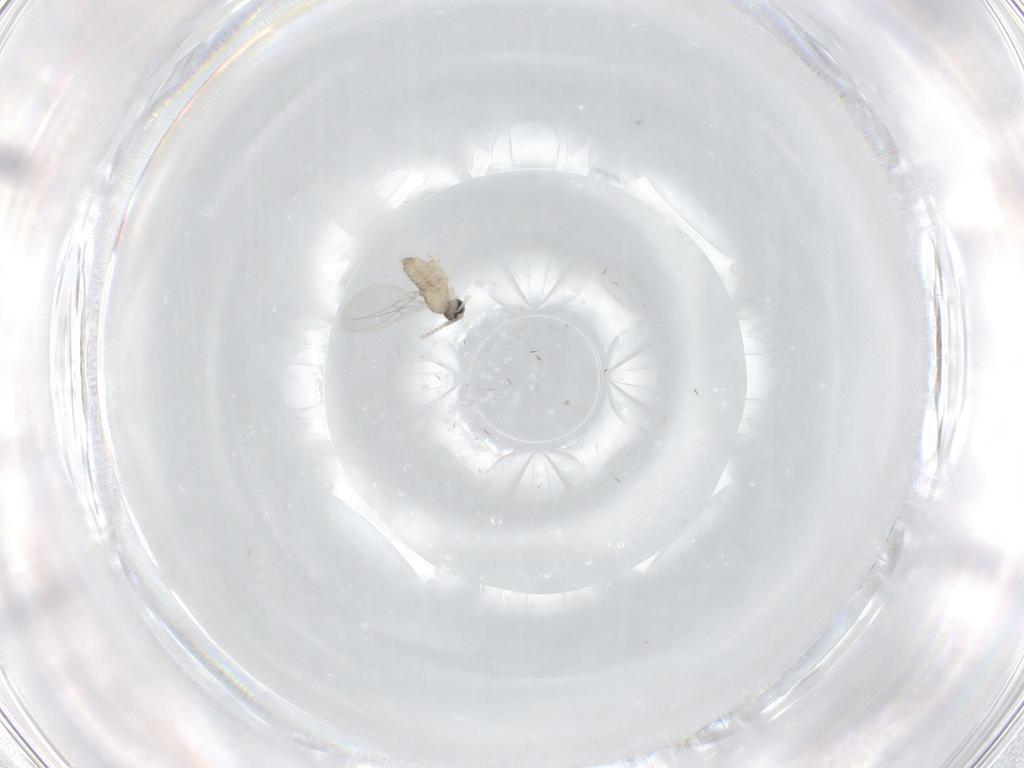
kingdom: Animalia
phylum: Arthropoda
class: Insecta
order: Diptera
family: Cecidomyiidae
